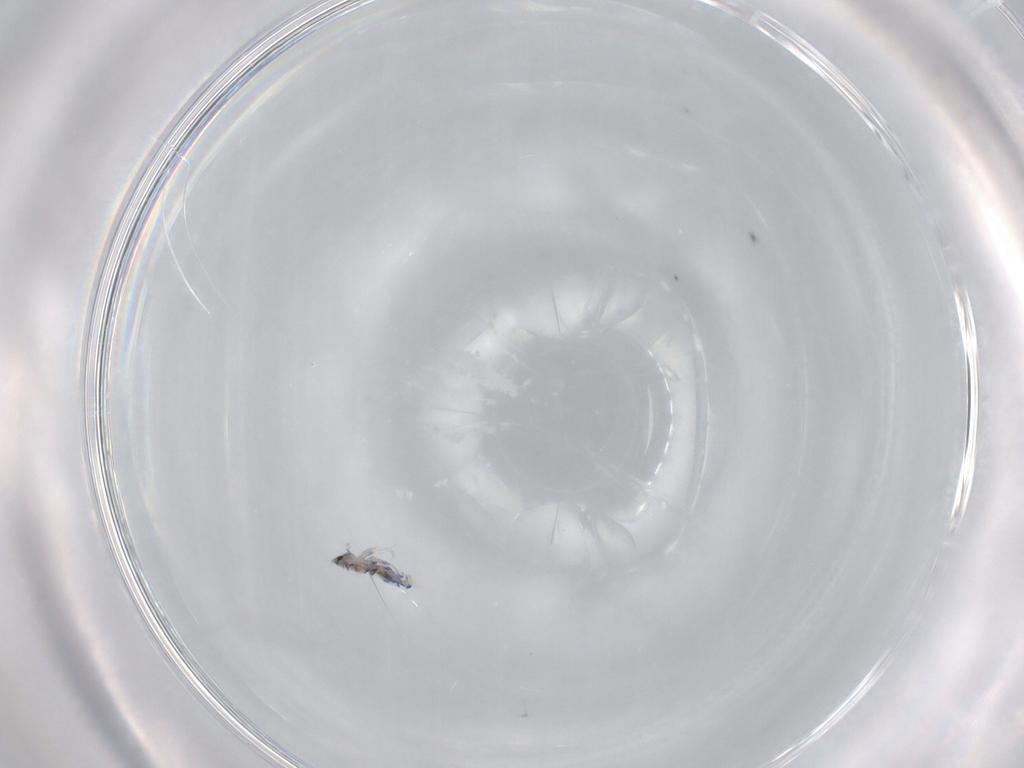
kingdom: Animalia
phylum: Arthropoda
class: Collembola
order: Entomobryomorpha
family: Entomobryidae
